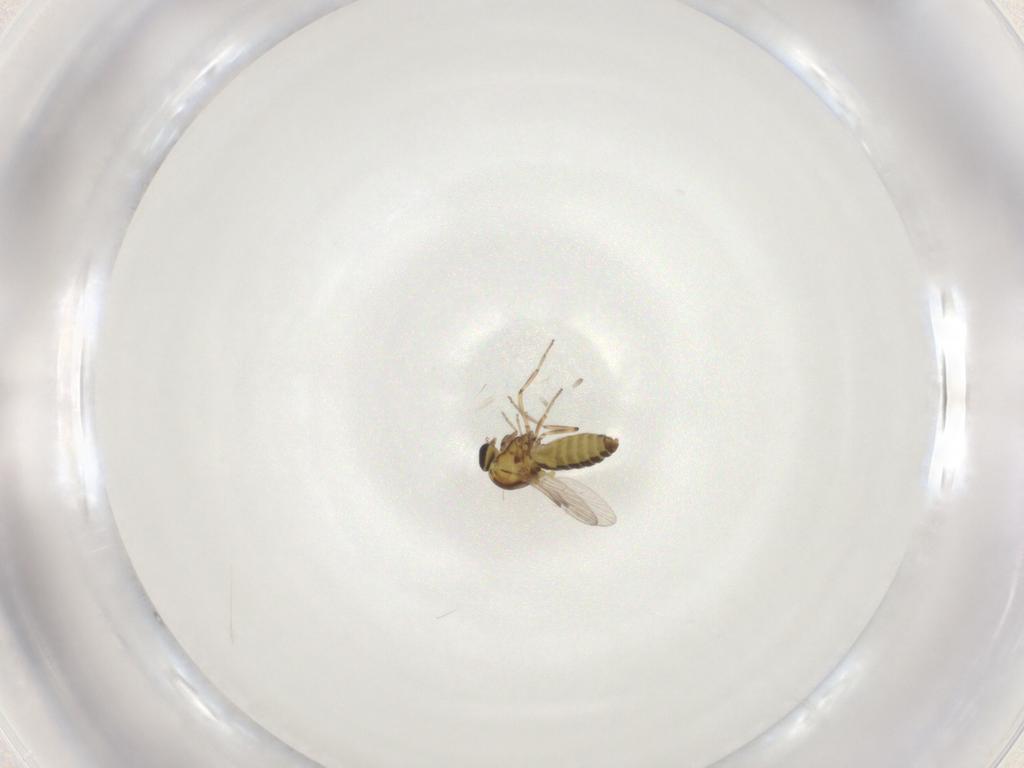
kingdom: Animalia
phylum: Arthropoda
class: Insecta
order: Diptera
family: Ceratopogonidae
